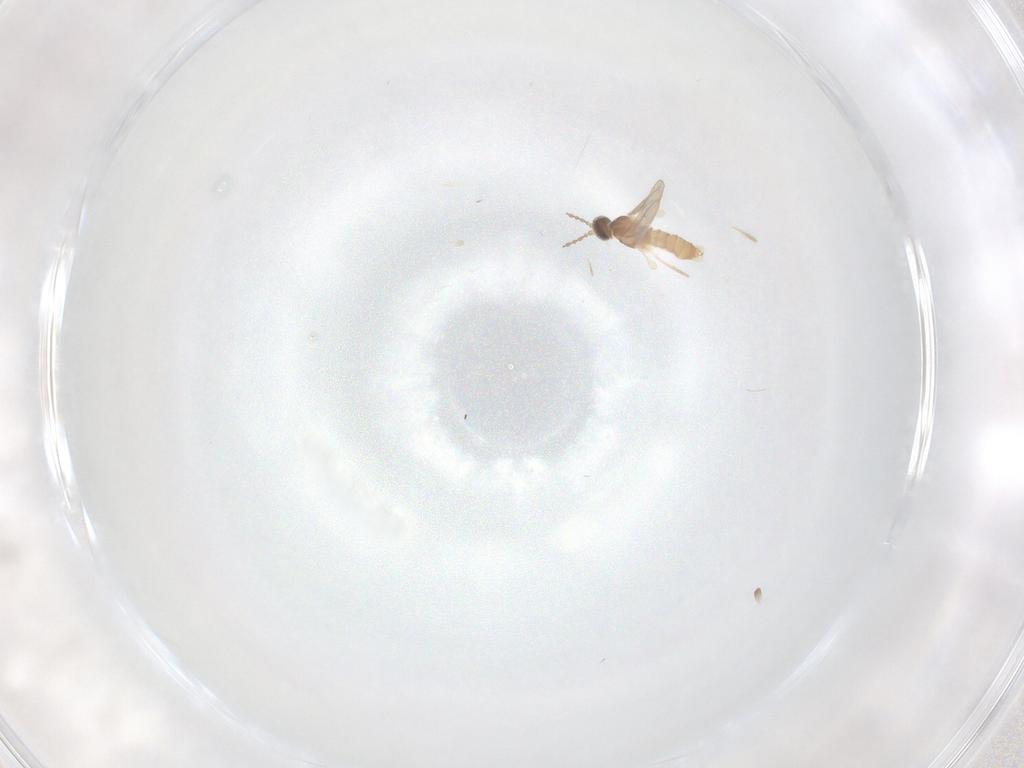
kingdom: Animalia
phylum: Arthropoda
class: Insecta
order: Diptera
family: Cecidomyiidae
